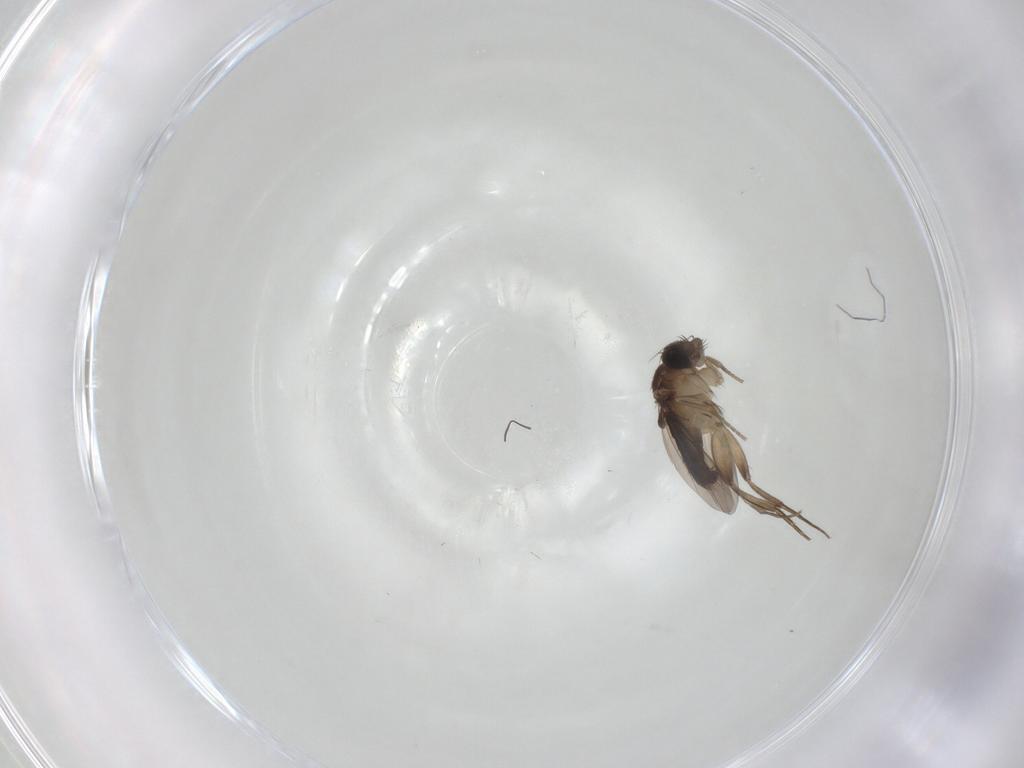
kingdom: Animalia
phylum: Arthropoda
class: Insecta
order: Diptera
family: Phoridae
